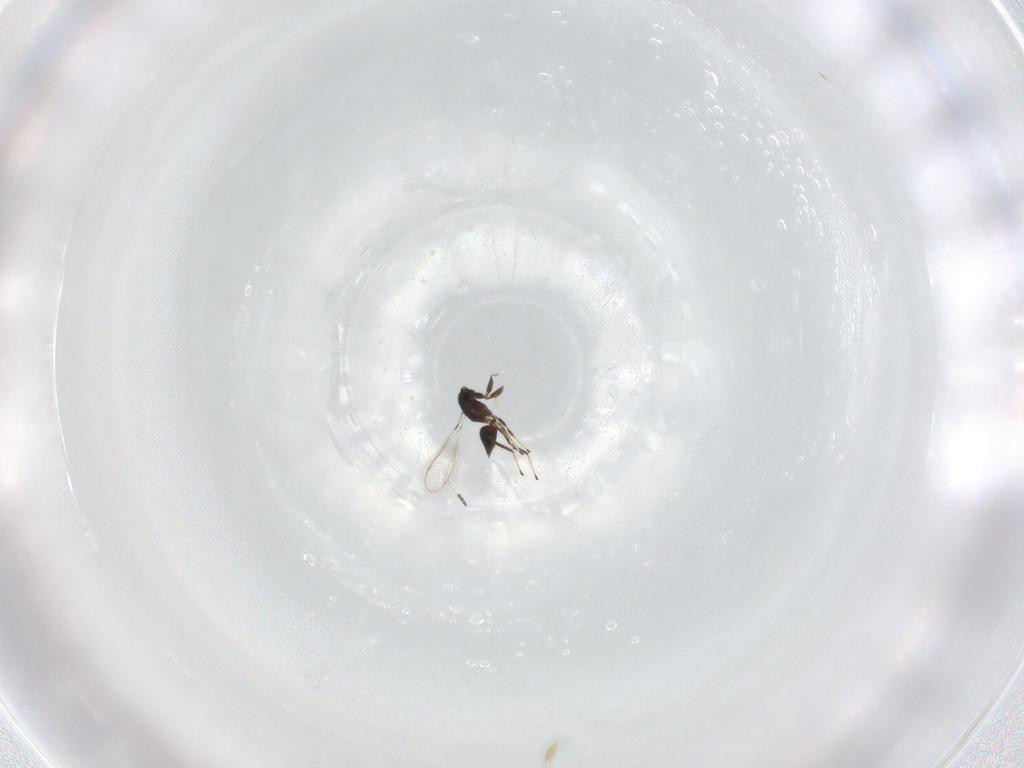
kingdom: Animalia
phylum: Arthropoda
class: Insecta
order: Hymenoptera
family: Mymaridae
